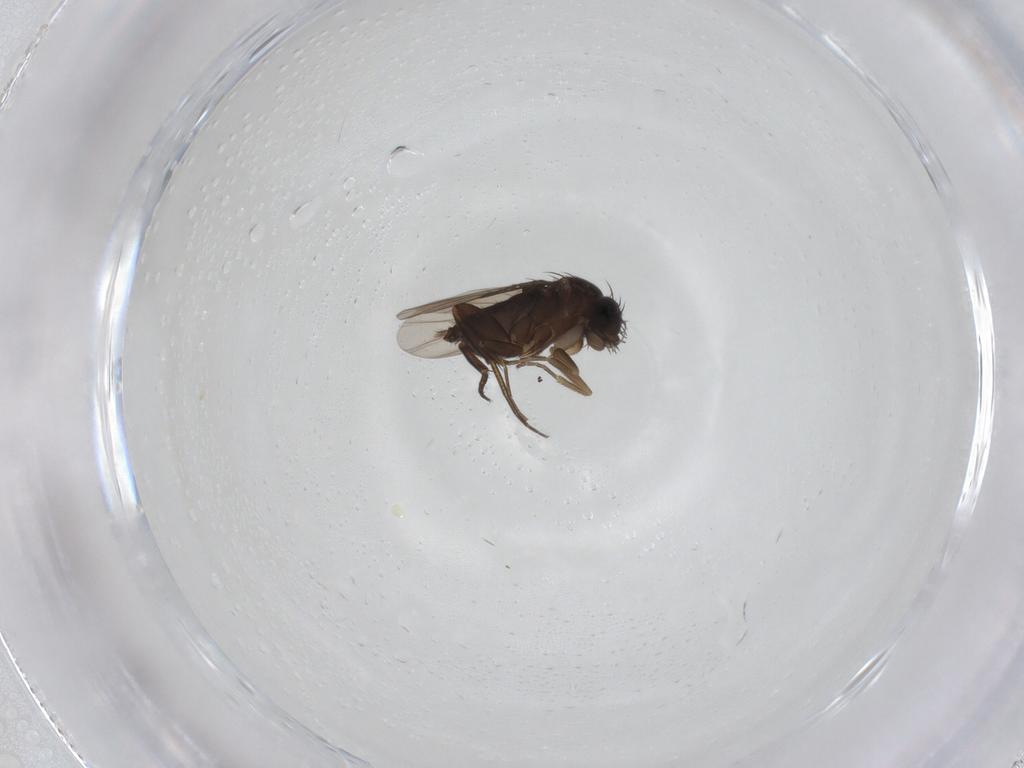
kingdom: Animalia
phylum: Arthropoda
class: Insecta
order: Diptera
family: Phoridae
